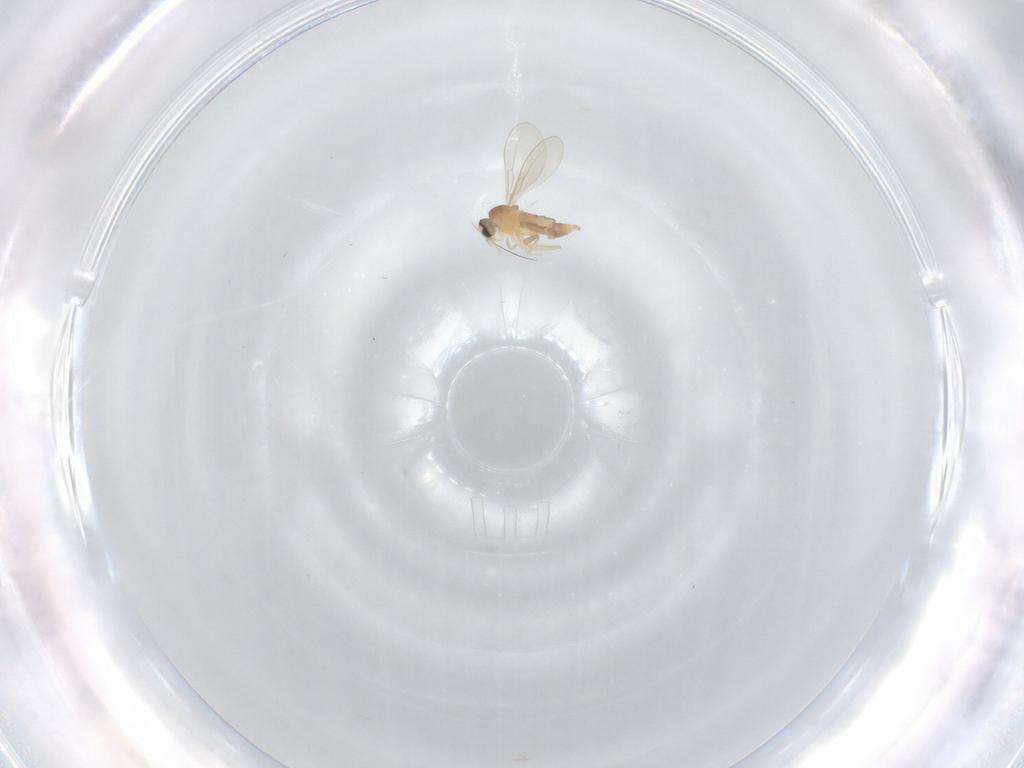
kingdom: Animalia
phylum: Arthropoda
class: Insecta
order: Diptera
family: Cecidomyiidae
